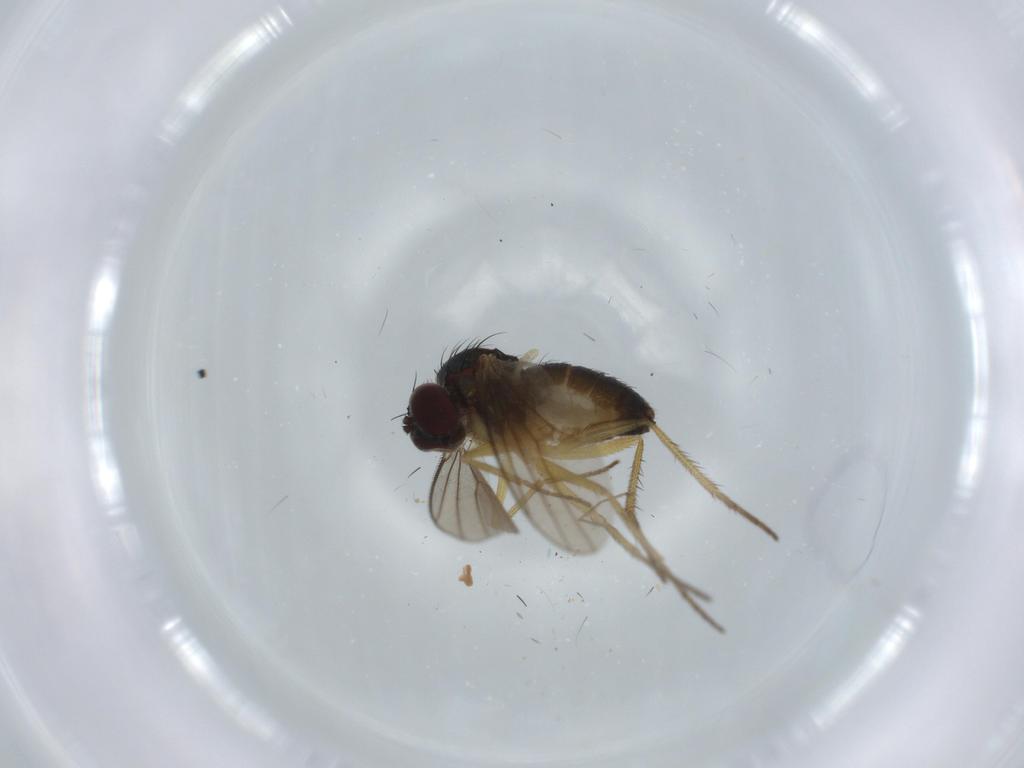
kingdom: Animalia
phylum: Arthropoda
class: Insecta
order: Diptera
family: Chironomidae
